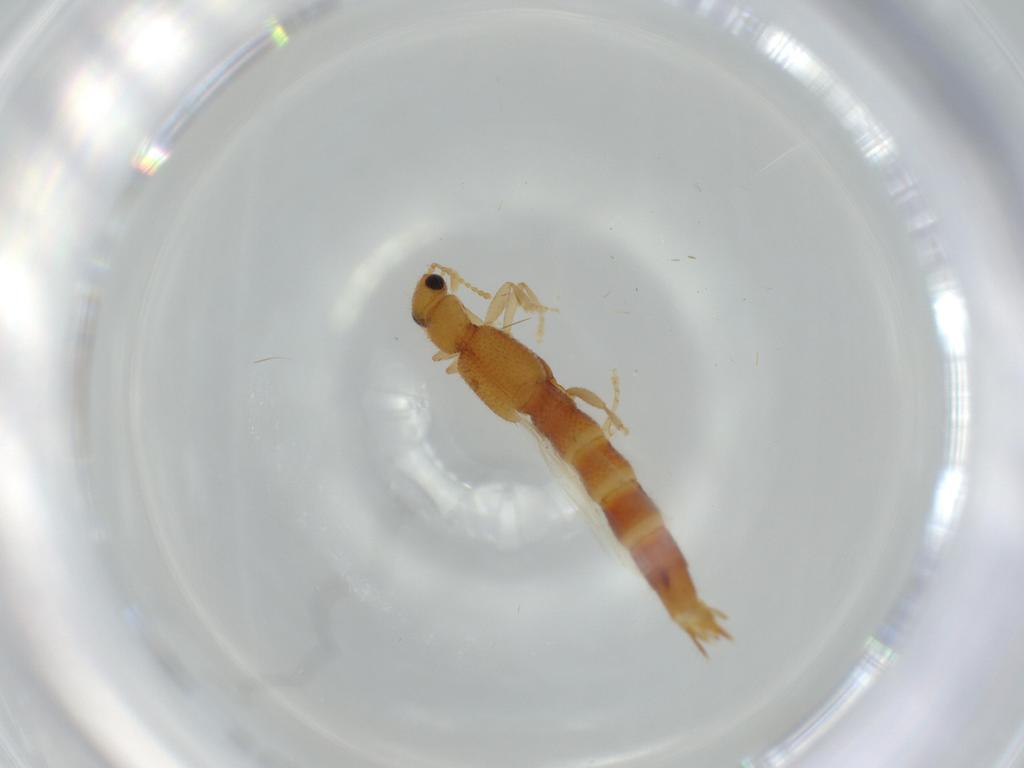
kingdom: Animalia
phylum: Arthropoda
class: Insecta
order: Coleoptera
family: Staphylinidae
